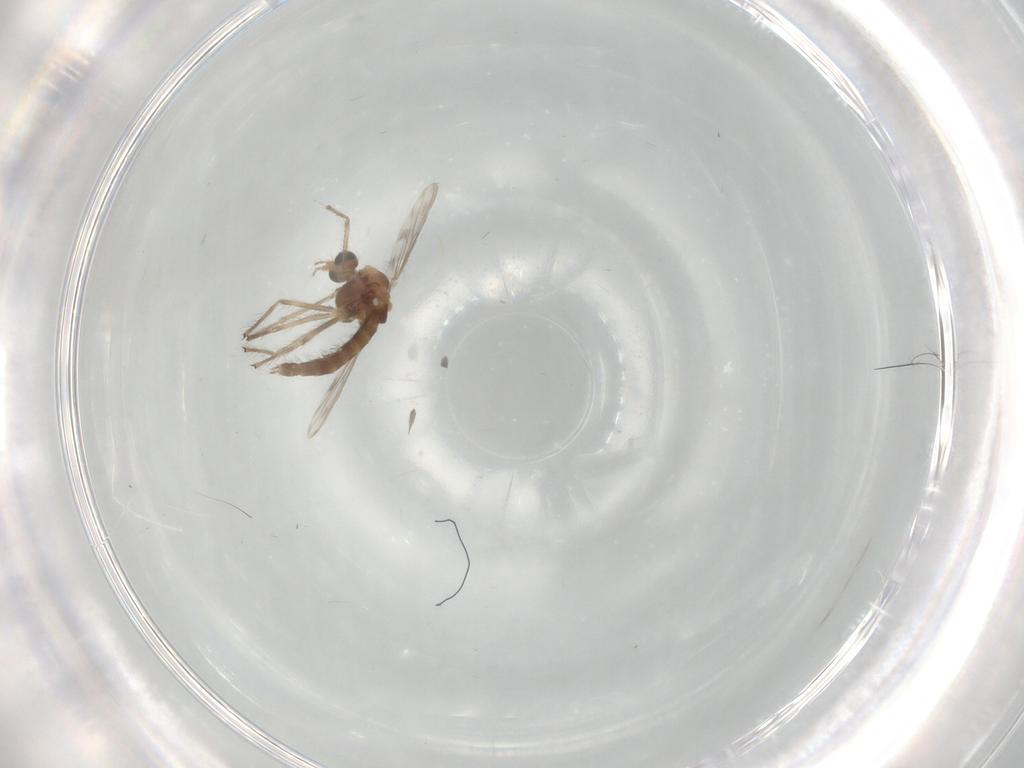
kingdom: Animalia
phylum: Arthropoda
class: Insecta
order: Diptera
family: Chironomidae
